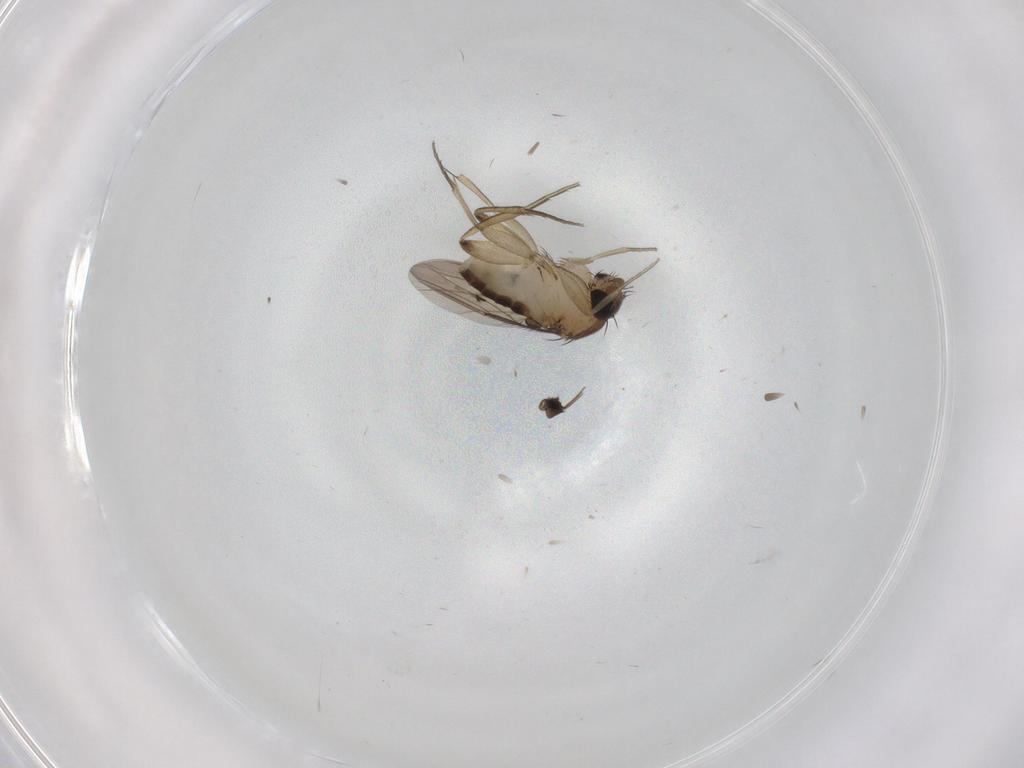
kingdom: Animalia
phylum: Arthropoda
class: Insecta
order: Diptera
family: Phoridae
